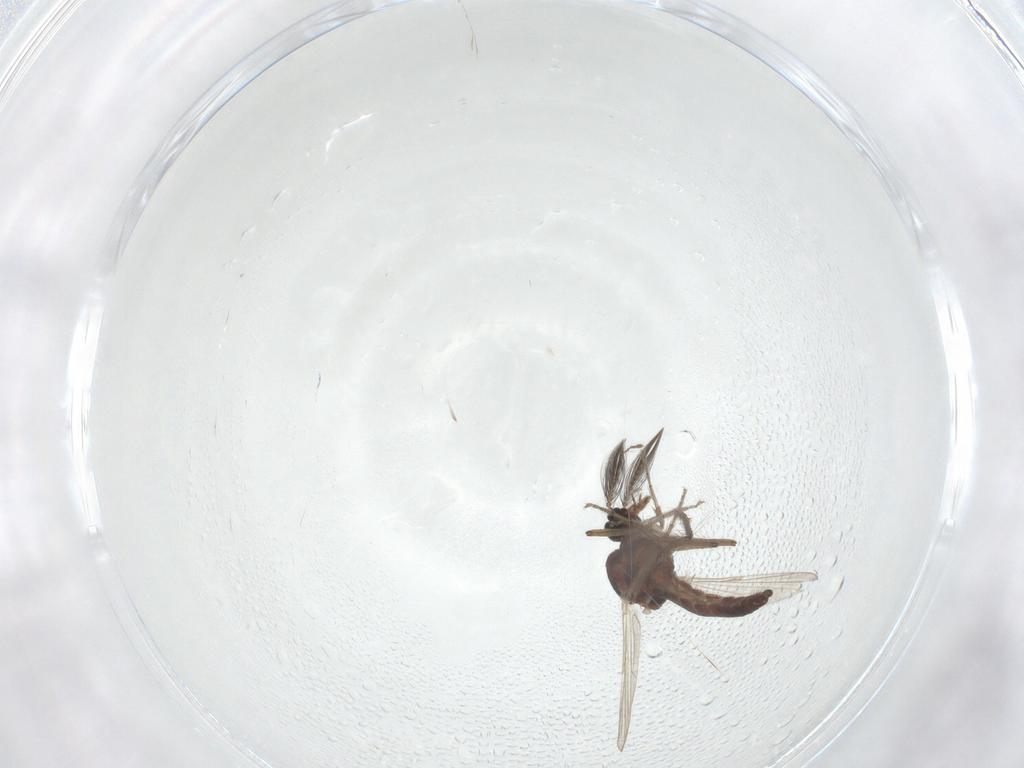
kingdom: Animalia
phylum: Arthropoda
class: Insecta
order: Diptera
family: Ceratopogonidae
